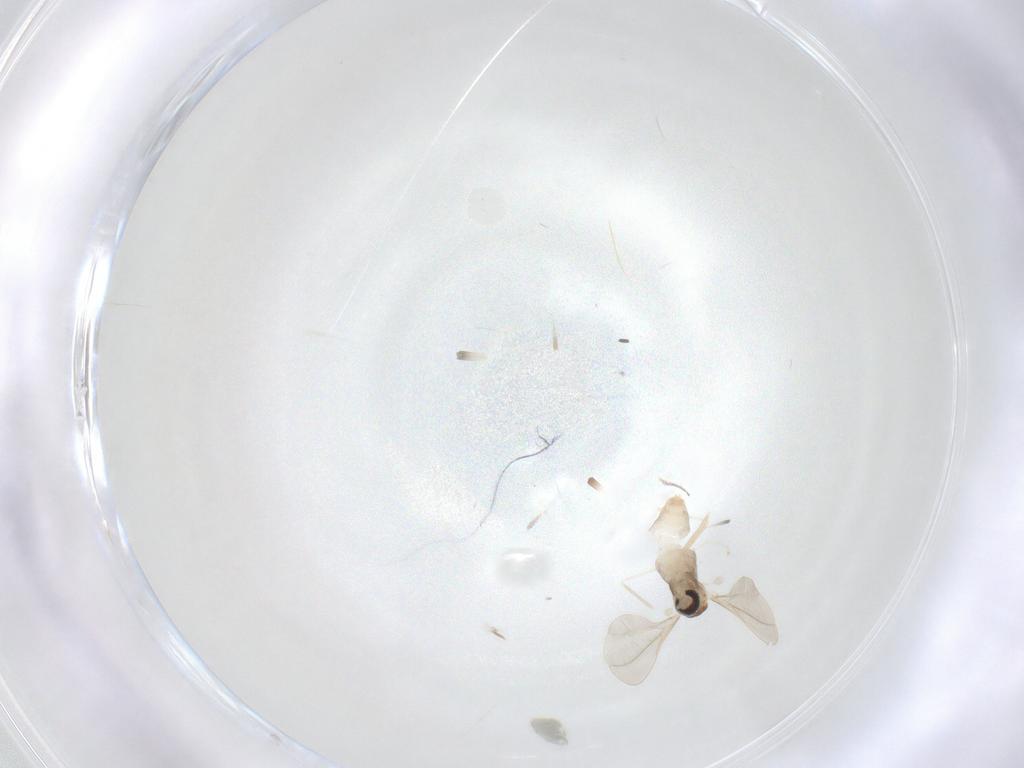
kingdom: Animalia
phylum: Arthropoda
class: Insecta
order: Diptera
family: Cecidomyiidae
